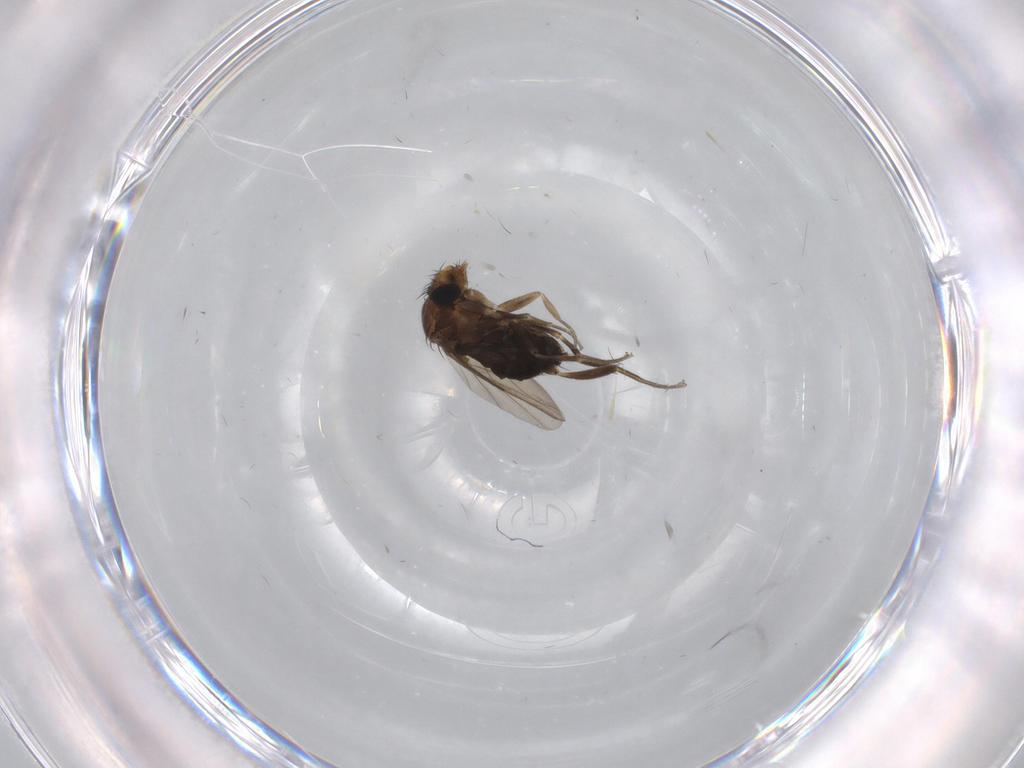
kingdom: Animalia
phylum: Arthropoda
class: Insecta
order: Diptera
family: Phoridae
